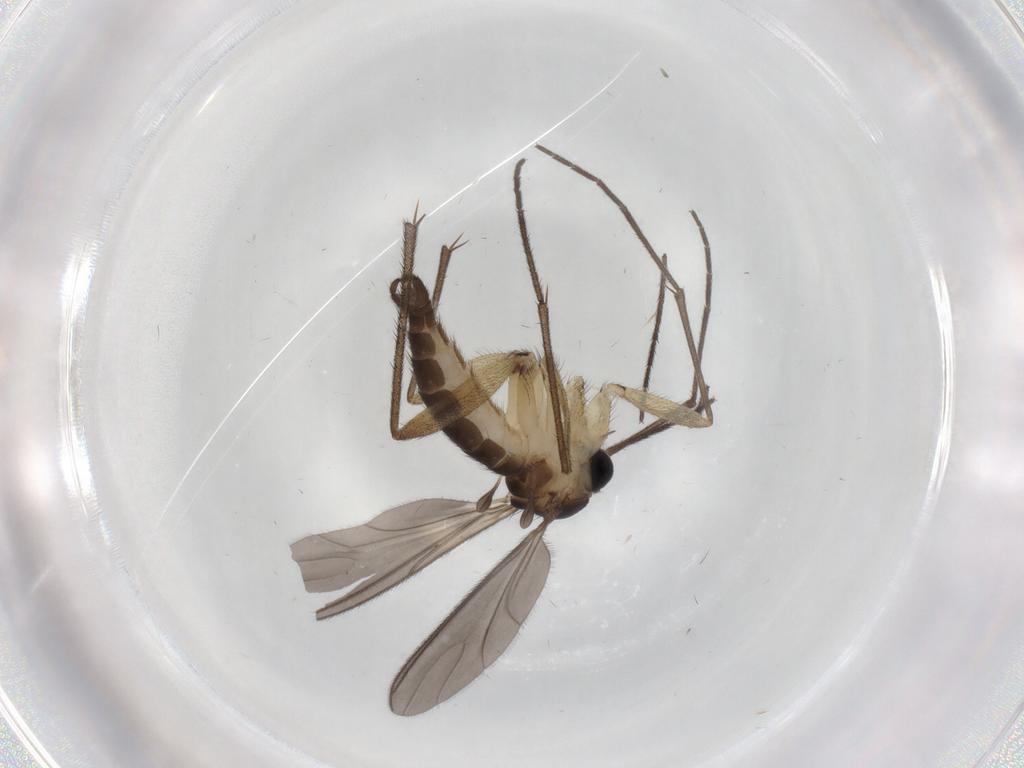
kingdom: Animalia
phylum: Arthropoda
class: Insecta
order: Diptera
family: Sciaridae
